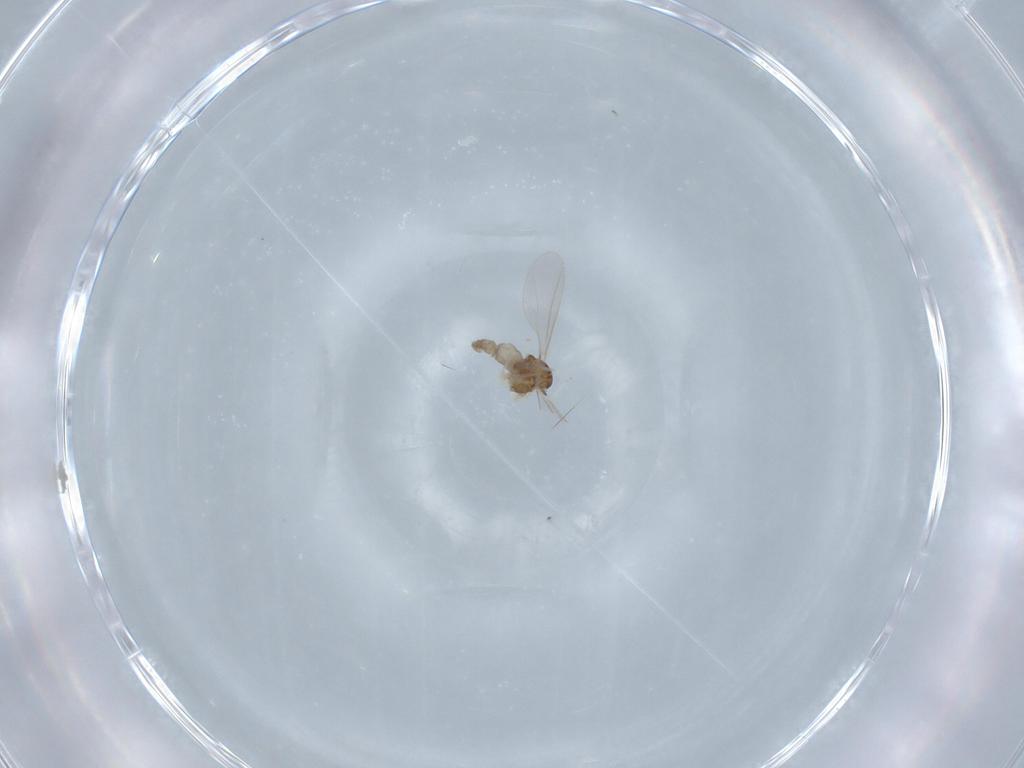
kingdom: Animalia
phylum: Arthropoda
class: Insecta
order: Diptera
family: Cecidomyiidae
